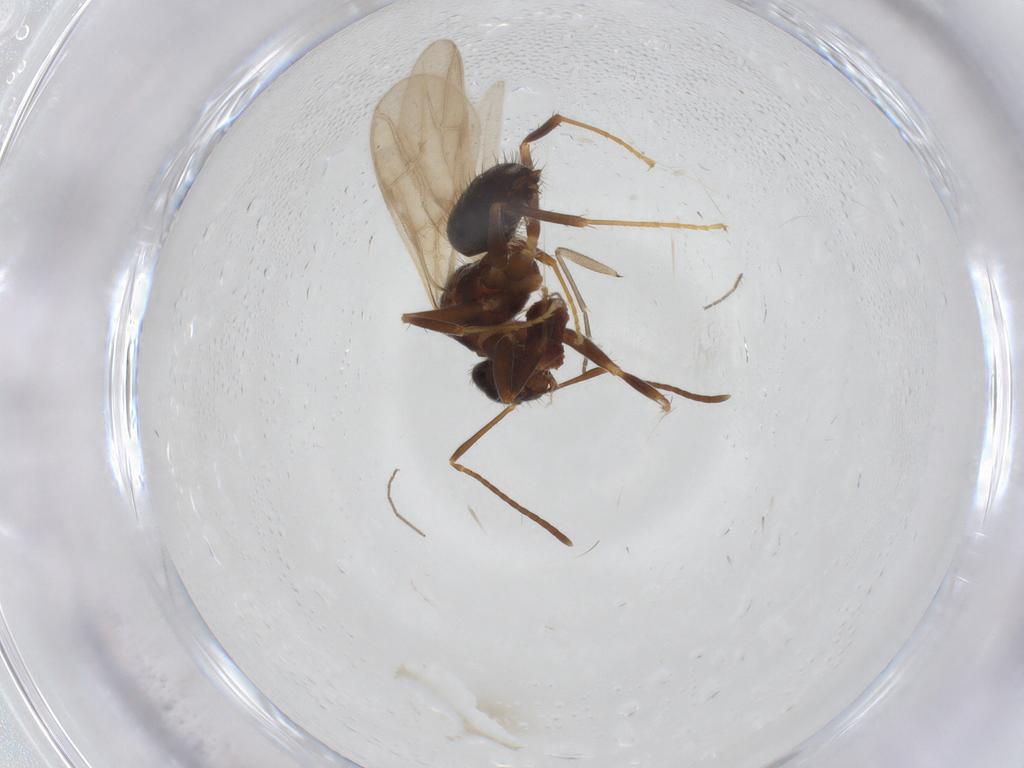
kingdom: Animalia
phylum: Arthropoda
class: Insecta
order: Hymenoptera
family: Formicidae
